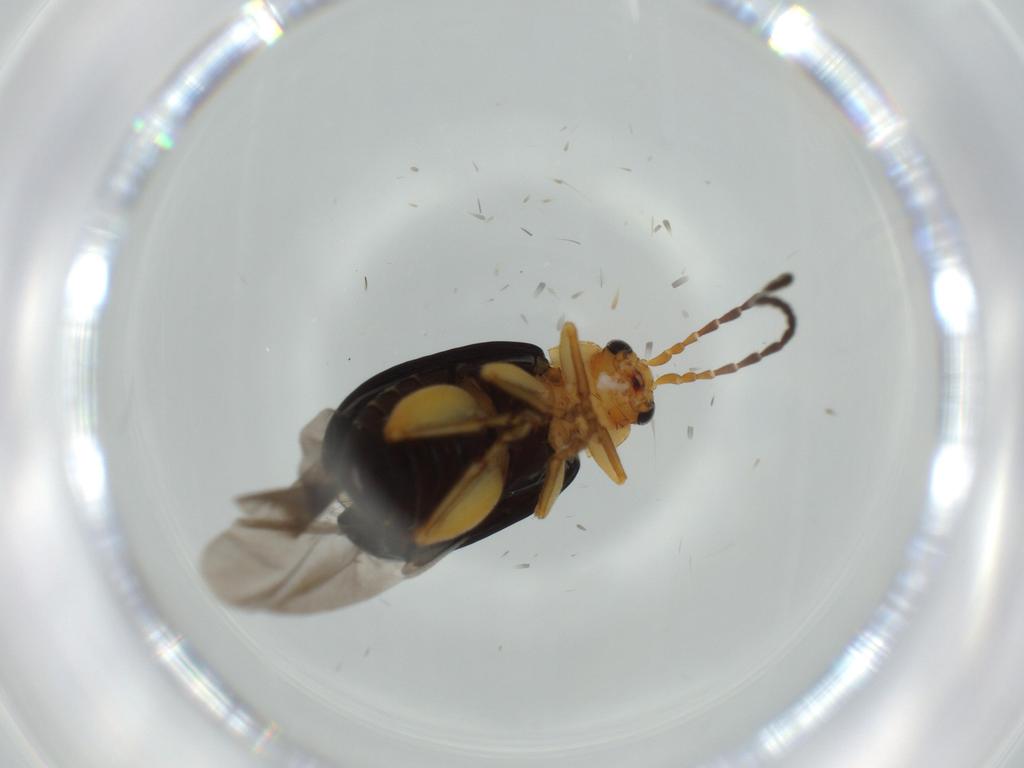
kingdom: Animalia
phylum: Arthropoda
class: Insecta
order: Coleoptera
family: Chrysomelidae
